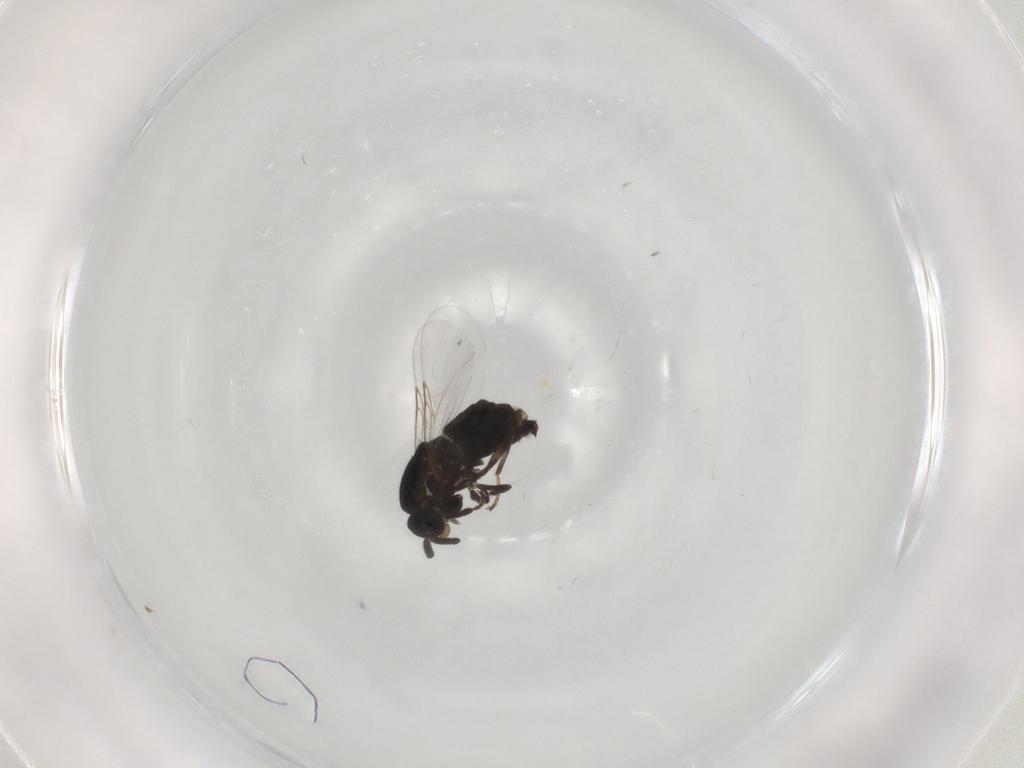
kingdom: Animalia
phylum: Arthropoda
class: Insecta
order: Diptera
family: Scatopsidae
